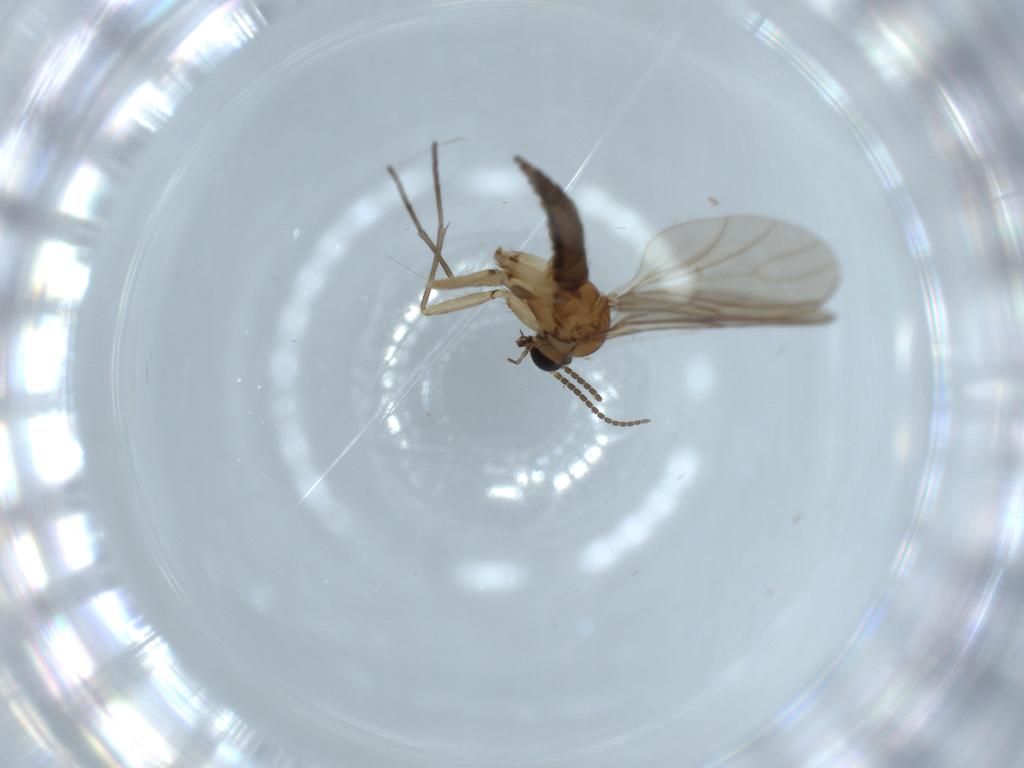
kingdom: Animalia
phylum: Arthropoda
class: Insecta
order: Diptera
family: Sciaridae
